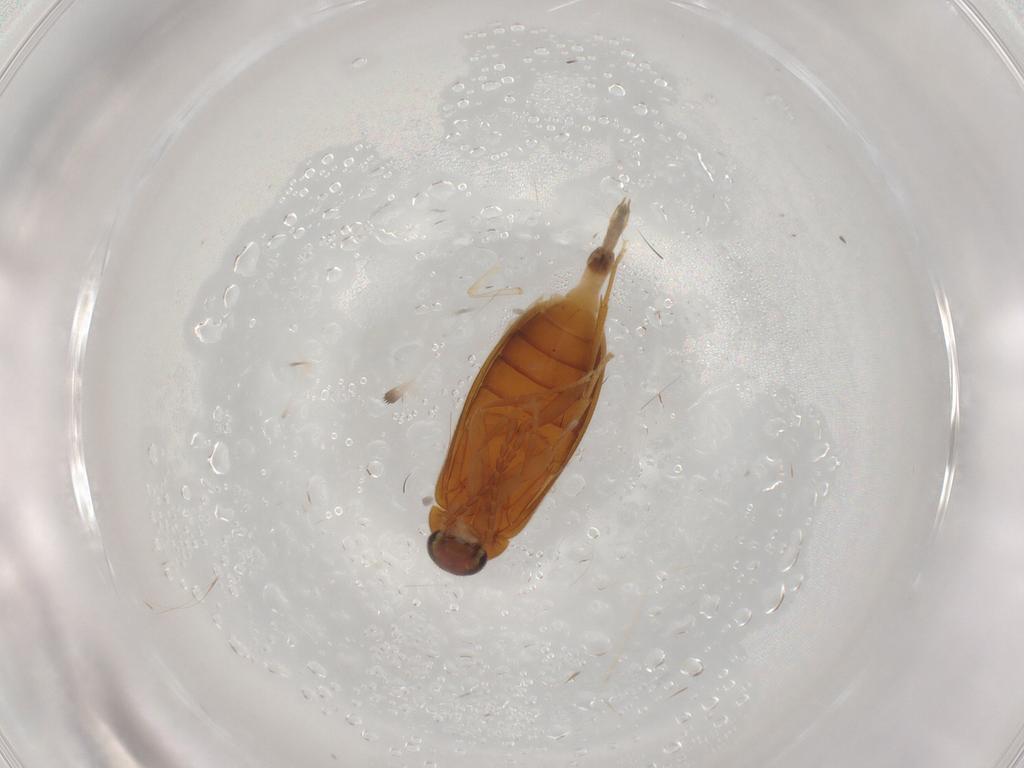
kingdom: Animalia
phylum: Arthropoda
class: Insecta
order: Coleoptera
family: Scraptiidae
